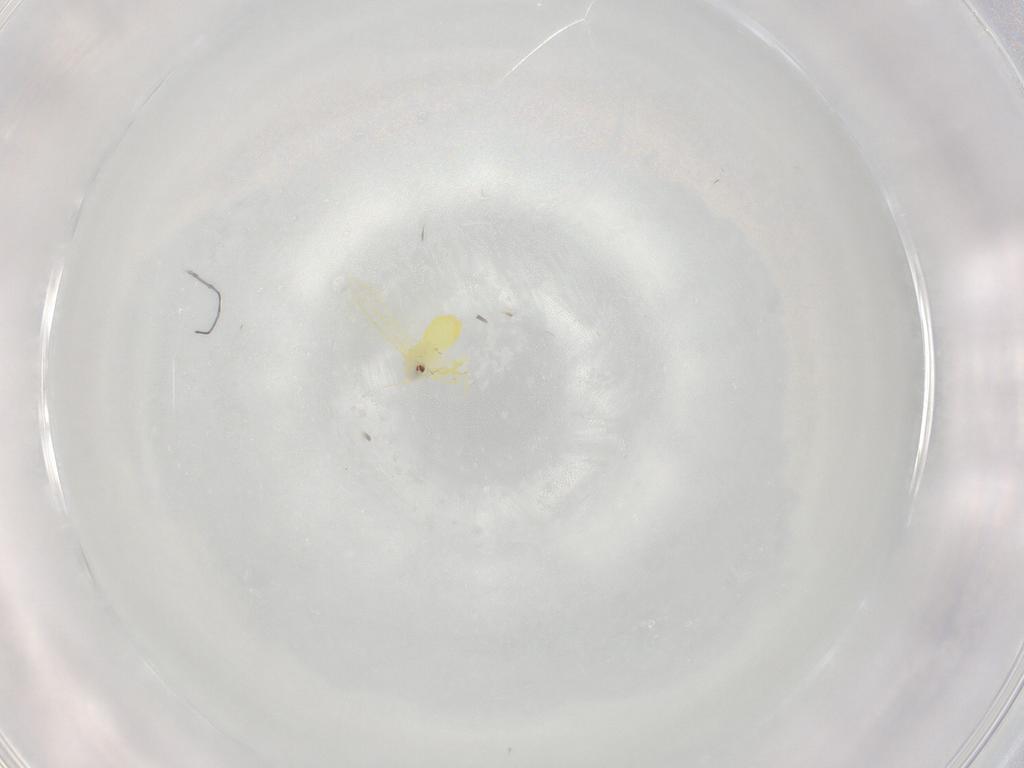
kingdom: Animalia
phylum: Arthropoda
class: Insecta
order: Hemiptera
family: Aleyrodidae
